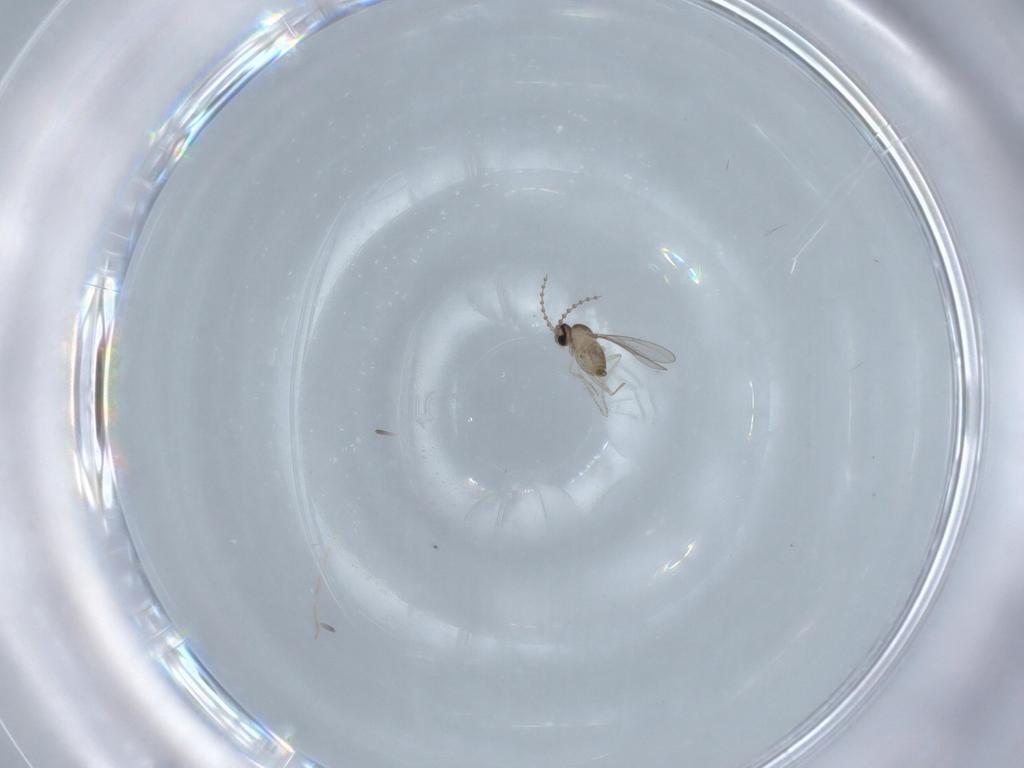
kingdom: Animalia
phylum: Arthropoda
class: Insecta
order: Diptera
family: Cecidomyiidae
